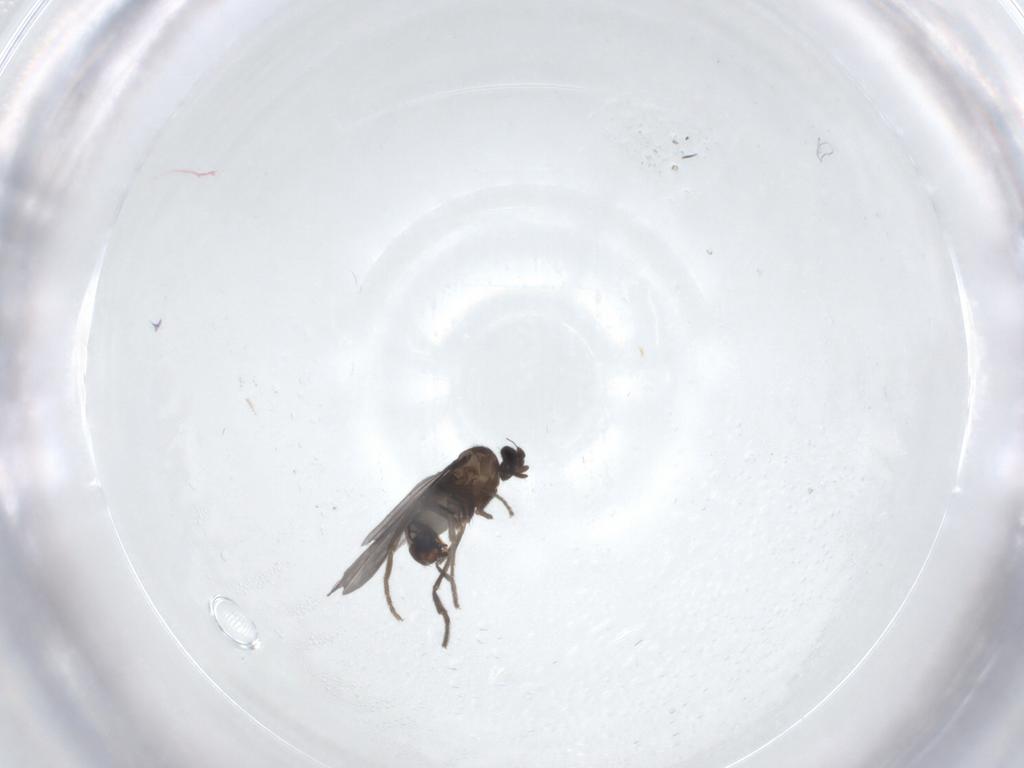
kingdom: Animalia
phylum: Arthropoda
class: Insecta
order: Diptera
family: Phoridae
